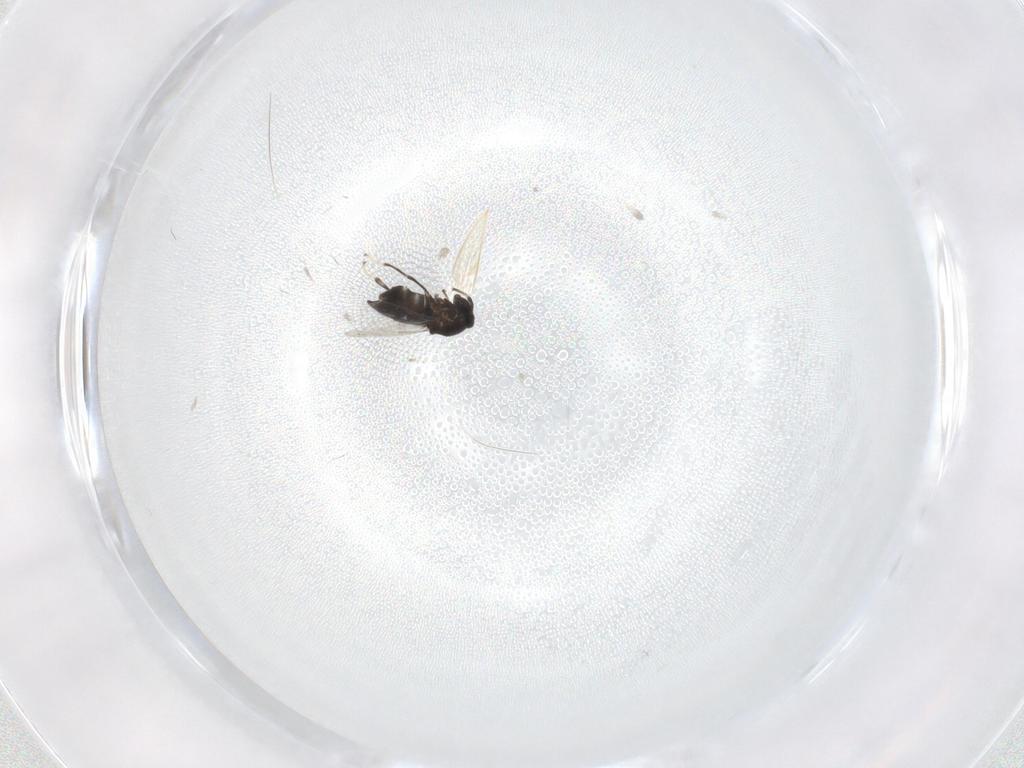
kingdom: Animalia
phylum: Arthropoda
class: Insecta
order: Diptera
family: Scatopsidae
